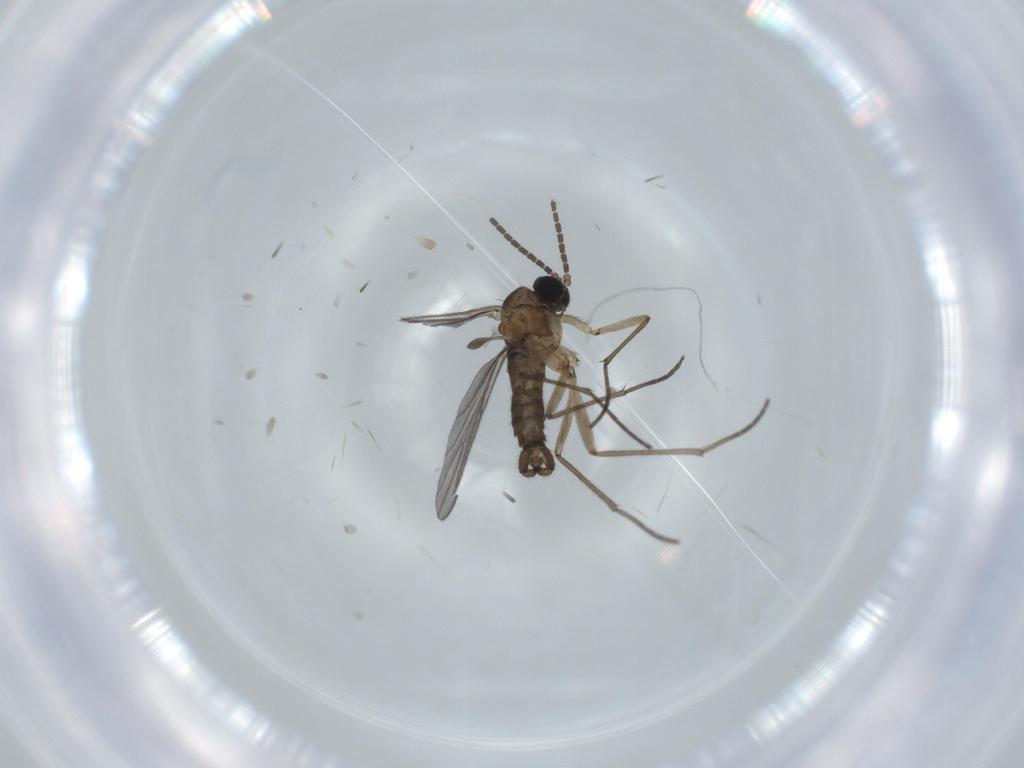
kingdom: Animalia
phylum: Arthropoda
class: Insecta
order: Diptera
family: Sciaridae
